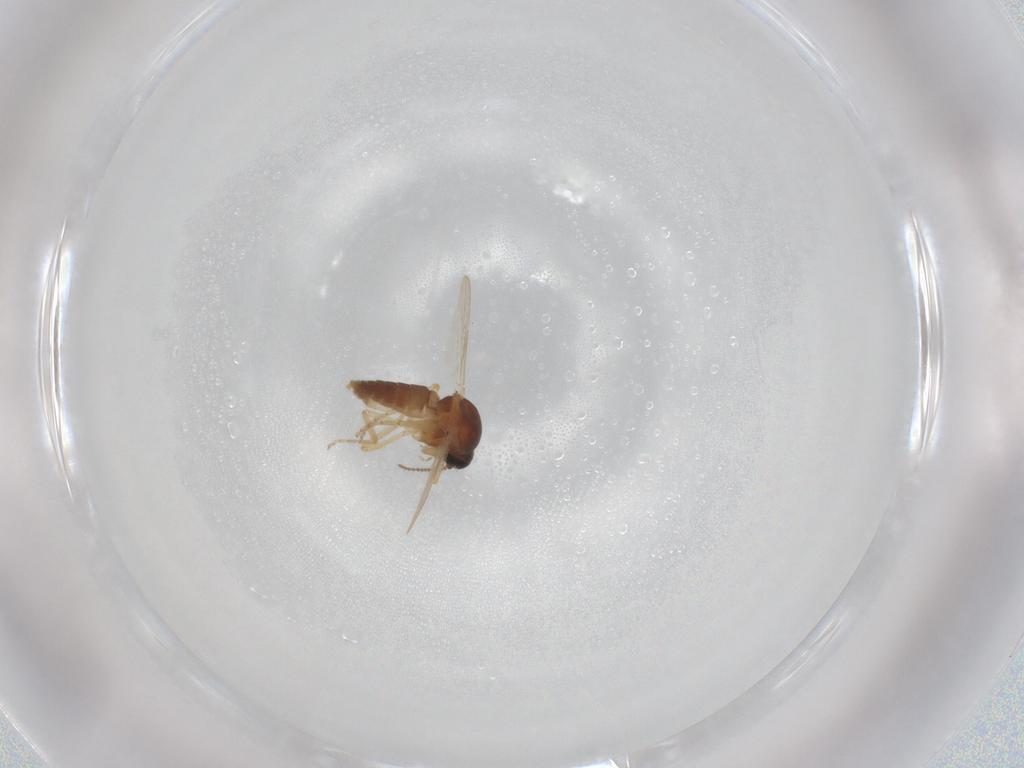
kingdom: Animalia
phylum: Arthropoda
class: Insecta
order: Diptera
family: Ceratopogonidae
